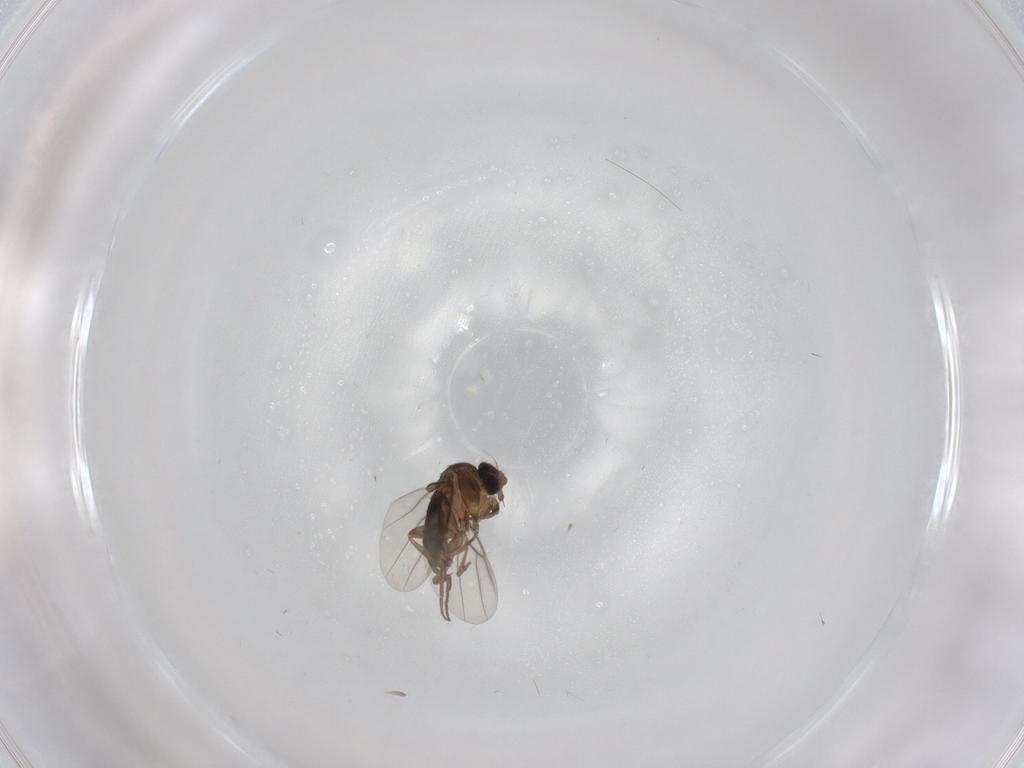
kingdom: Animalia
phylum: Arthropoda
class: Insecta
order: Diptera
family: Phoridae
